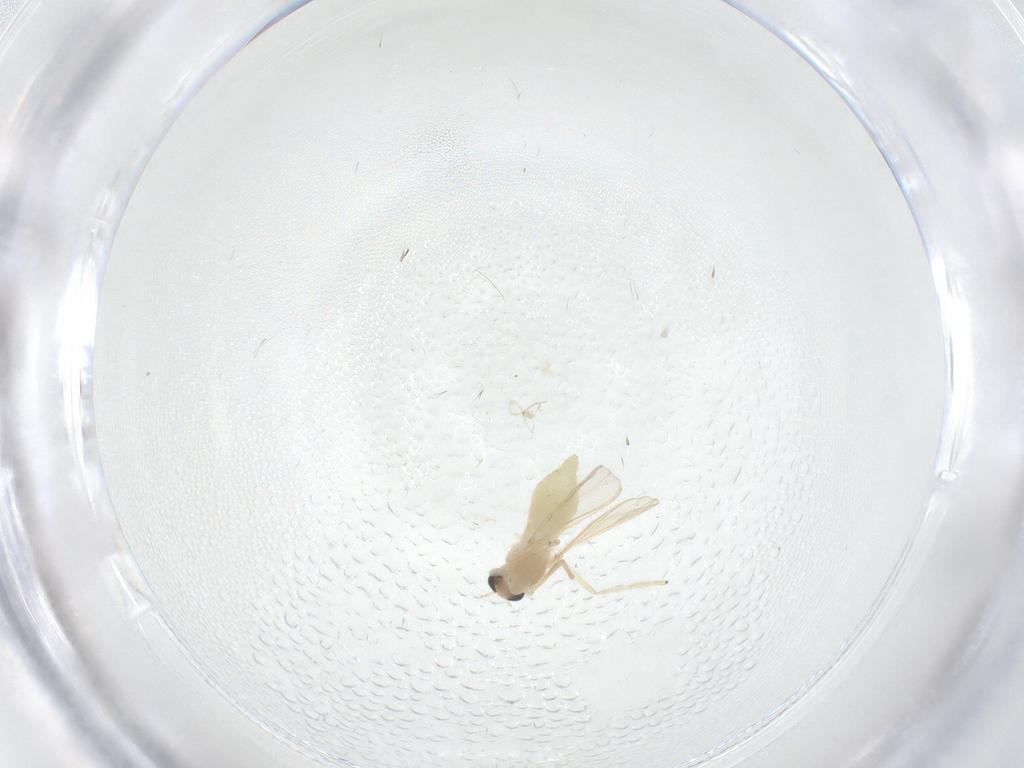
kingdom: Animalia
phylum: Arthropoda
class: Insecta
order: Diptera
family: Cecidomyiidae
